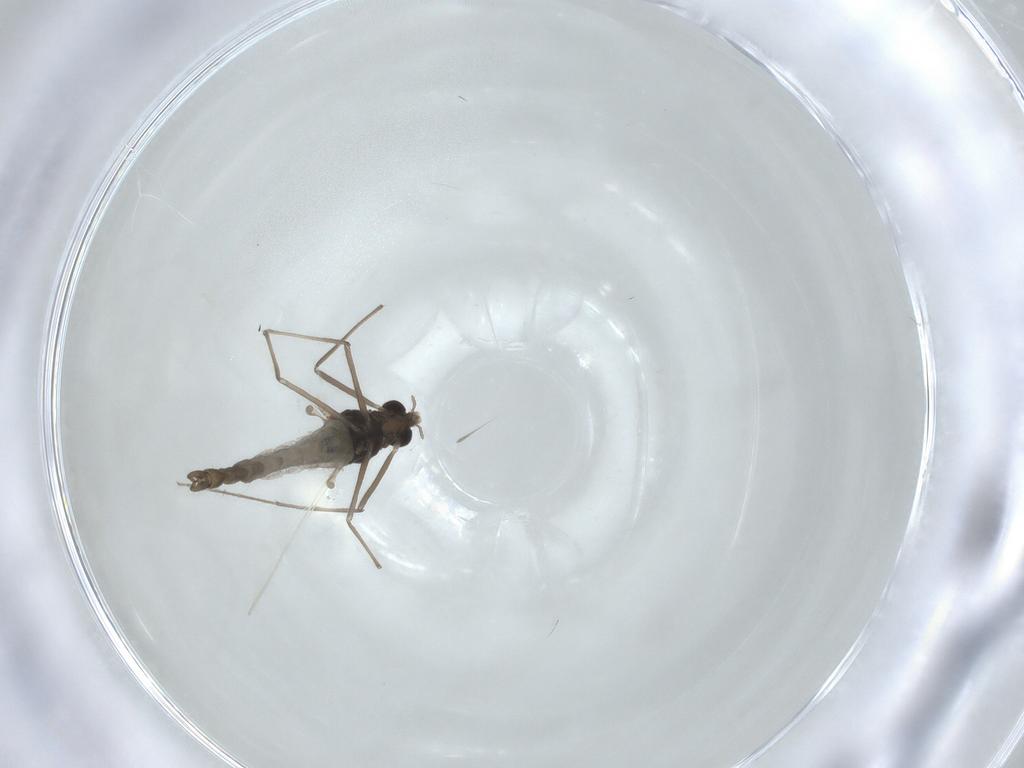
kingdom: Animalia
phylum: Arthropoda
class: Insecta
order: Diptera
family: Chironomidae
